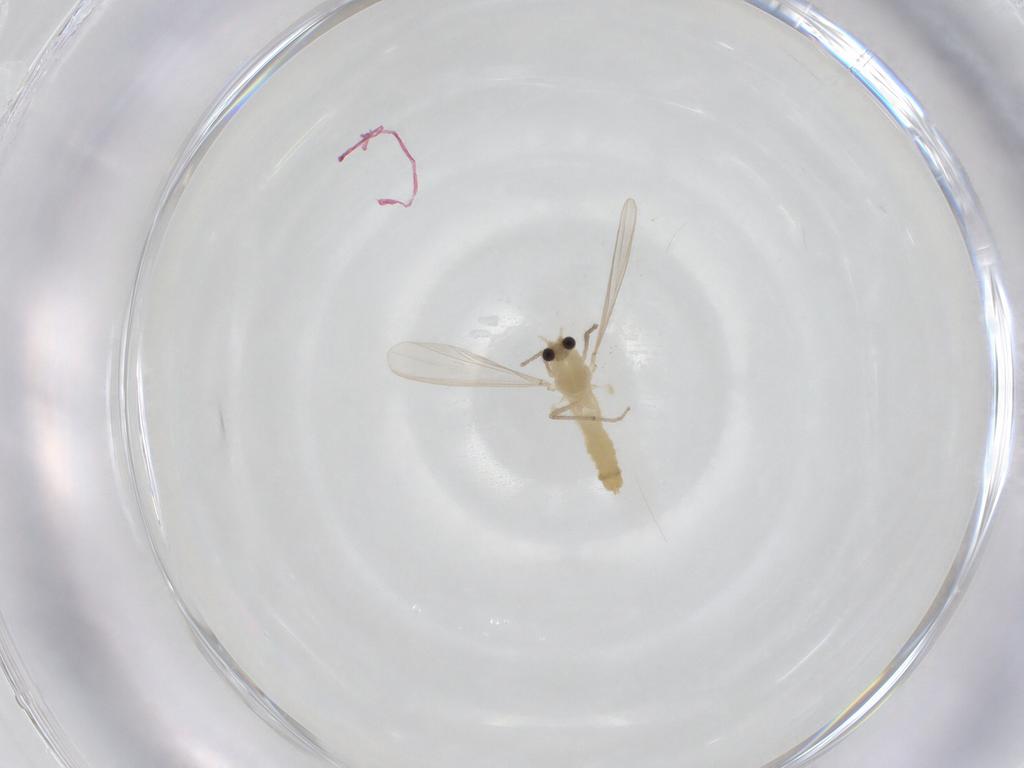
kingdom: Animalia
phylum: Arthropoda
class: Insecta
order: Diptera
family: Chironomidae
